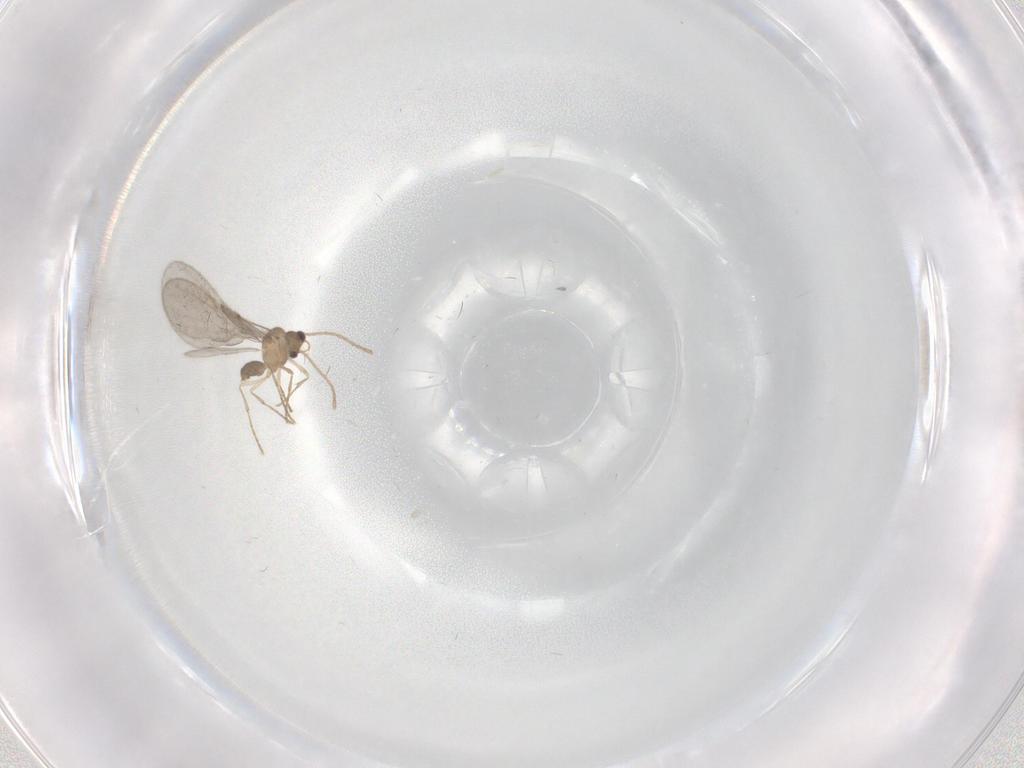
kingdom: Animalia
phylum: Arthropoda
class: Insecta
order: Hymenoptera
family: Formicidae
